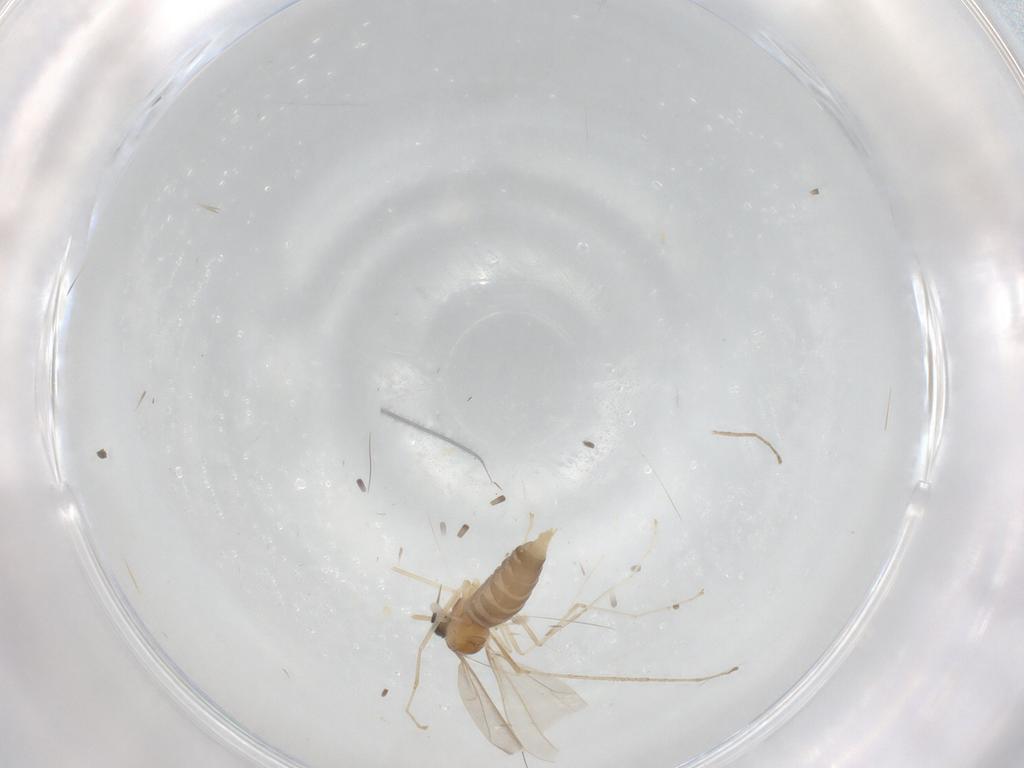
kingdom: Animalia
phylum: Arthropoda
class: Insecta
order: Diptera
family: Cecidomyiidae
